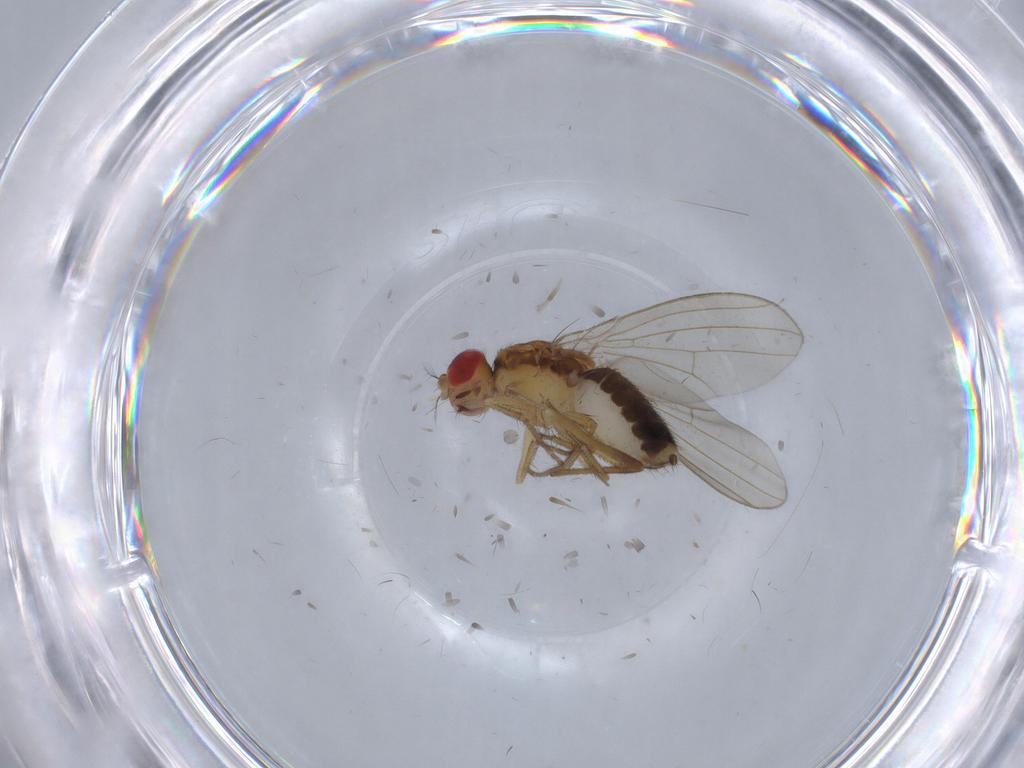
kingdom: Animalia
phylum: Arthropoda
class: Insecta
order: Diptera
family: Drosophilidae
